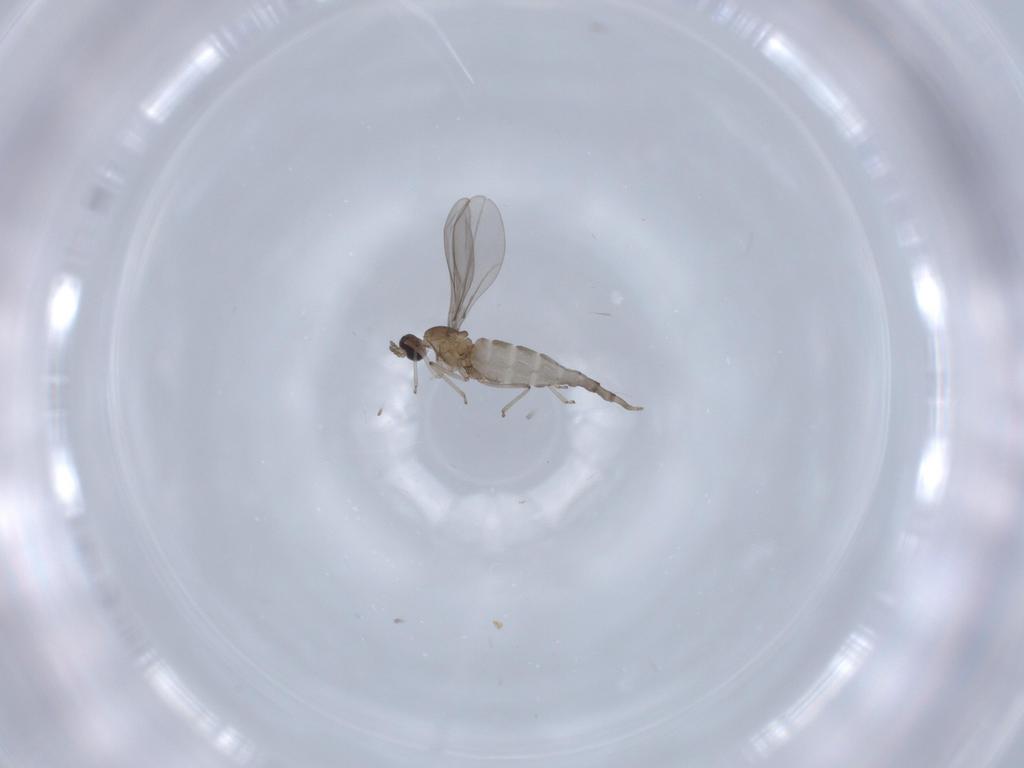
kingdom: Animalia
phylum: Arthropoda
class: Insecta
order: Diptera
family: Cecidomyiidae
